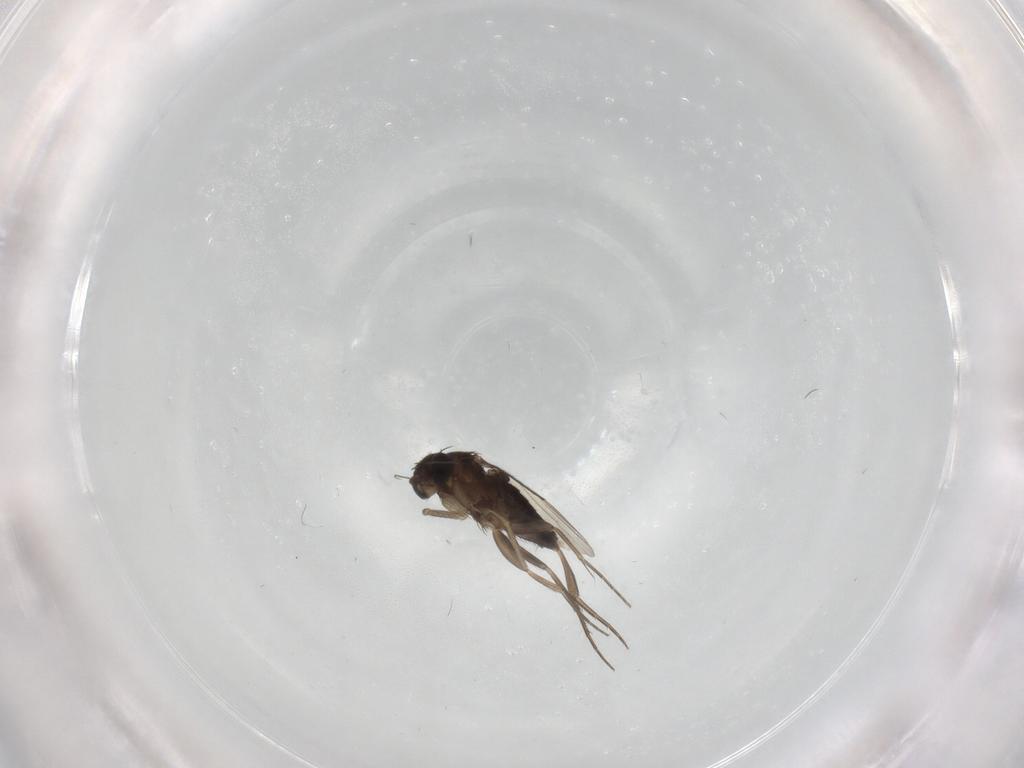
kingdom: Animalia
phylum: Arthropoda
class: Insecta
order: Diptera
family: Phoridae
